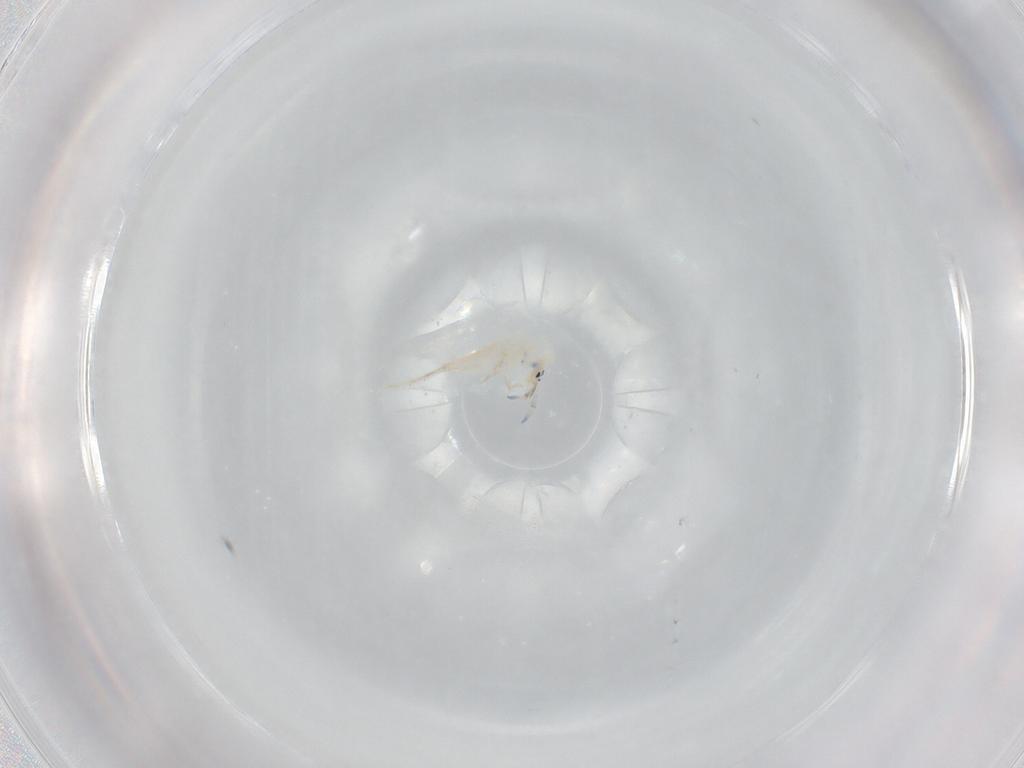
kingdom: Animalia
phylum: Arthropoda
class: Collembola
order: Entomobryomorpha
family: Entomobryidae
